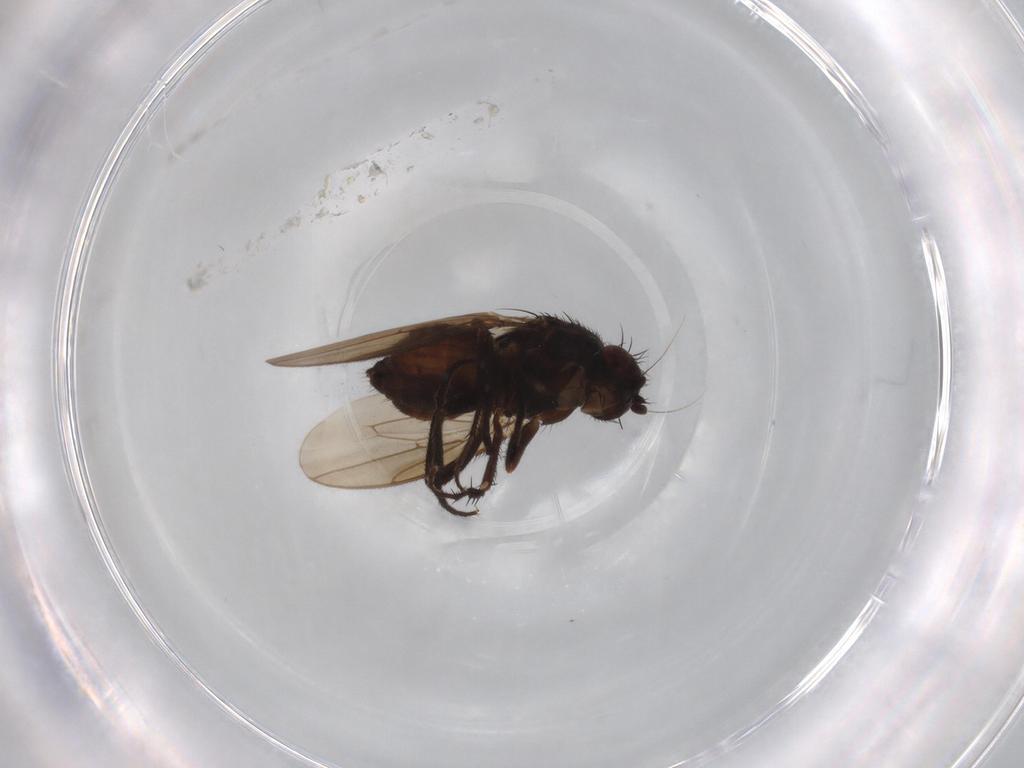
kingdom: Animalia
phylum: Arthropoda
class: Insecta
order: Diptera
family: Sphaeroceridae
